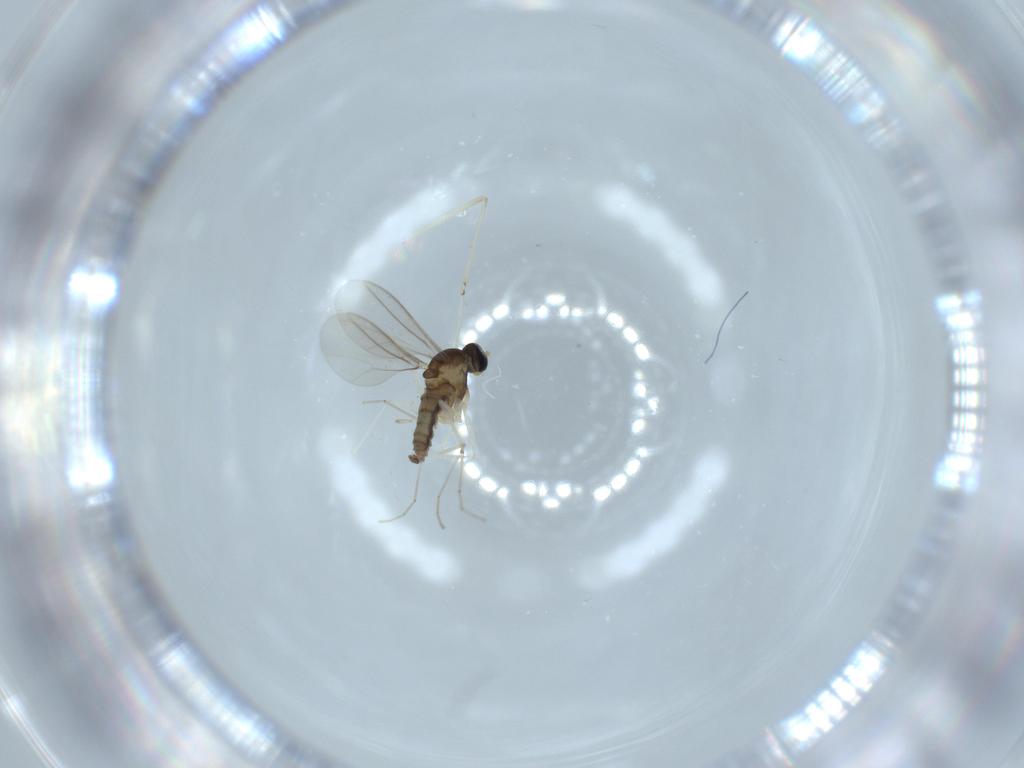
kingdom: Animalia
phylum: Arthropoda
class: Insecta
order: Diptera
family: Cecidomyiidae
